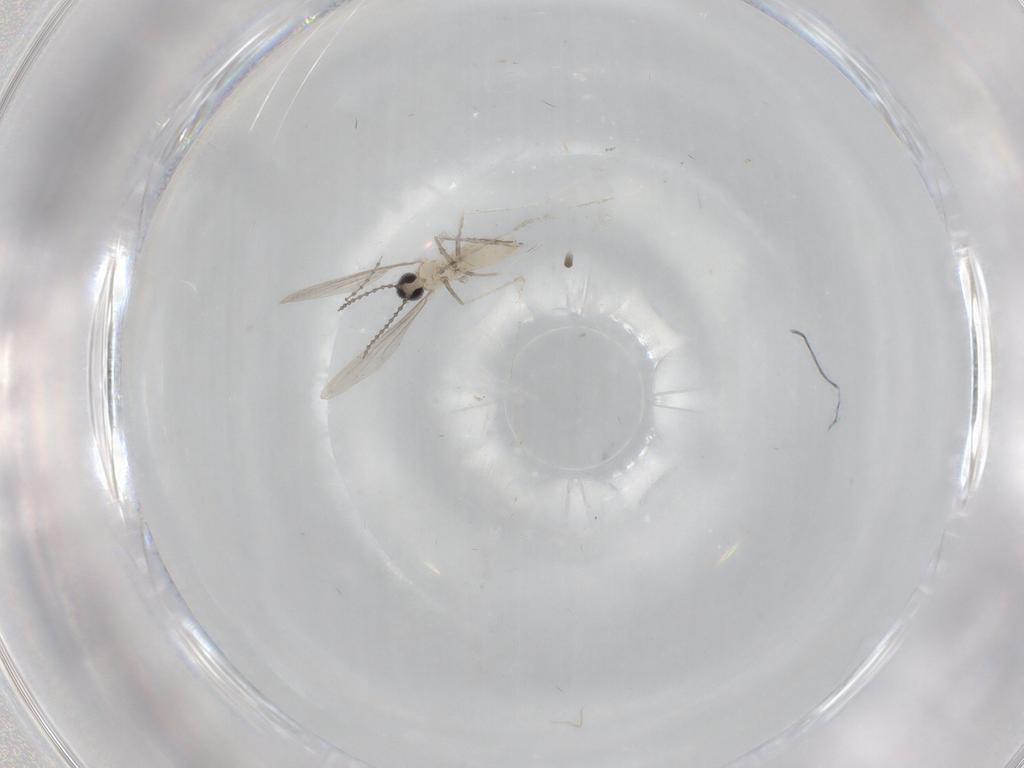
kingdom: Animalia
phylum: Arthropoda
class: Insecta
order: Diptera
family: Cecidomyiidae
